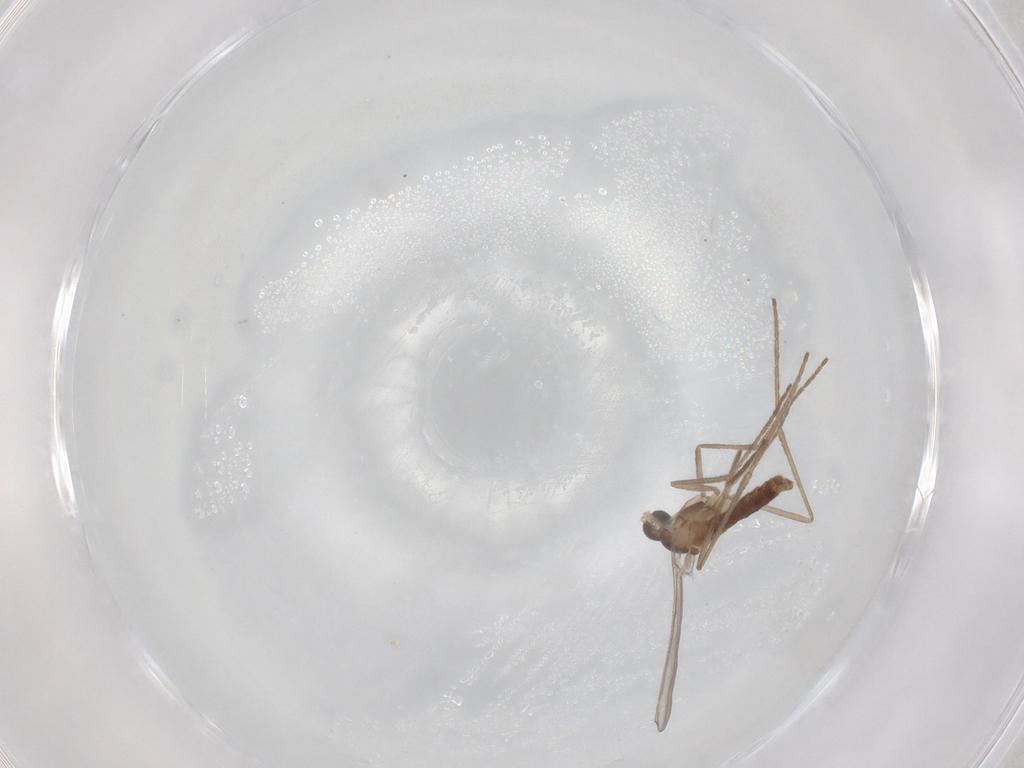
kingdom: Animalia
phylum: Arthropoda
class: Insecta
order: Diptera
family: Cecidomyiidae
